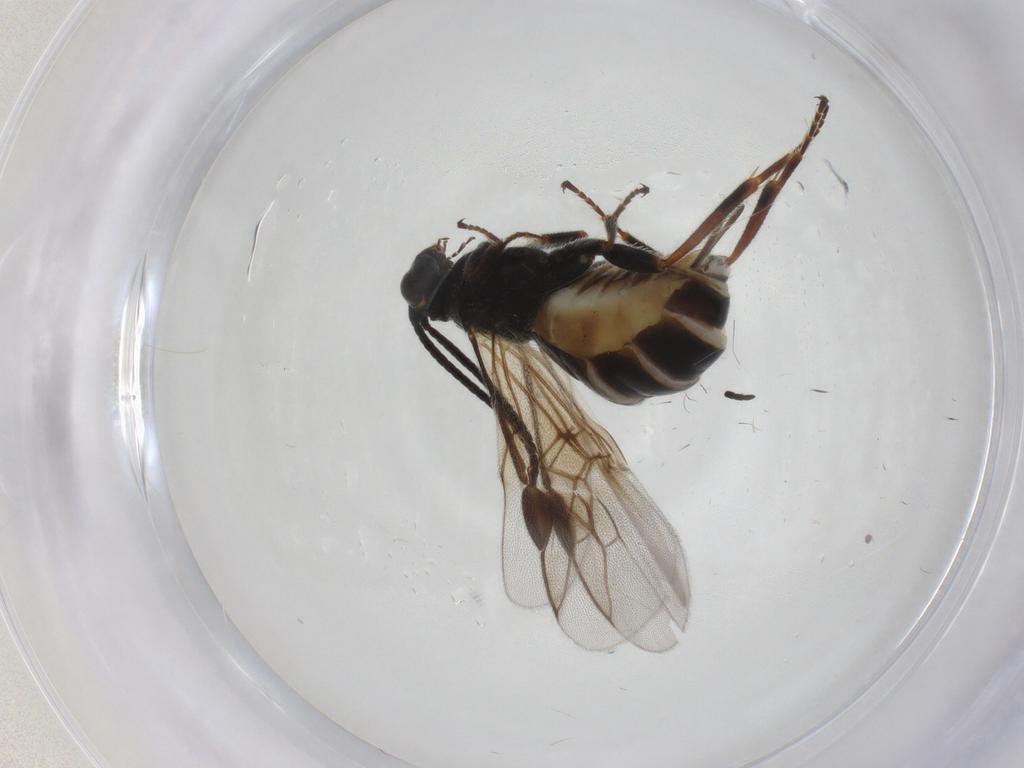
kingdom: Animalia
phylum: Arthropoda
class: Insecta
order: Hymenoptera
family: Braconidae
